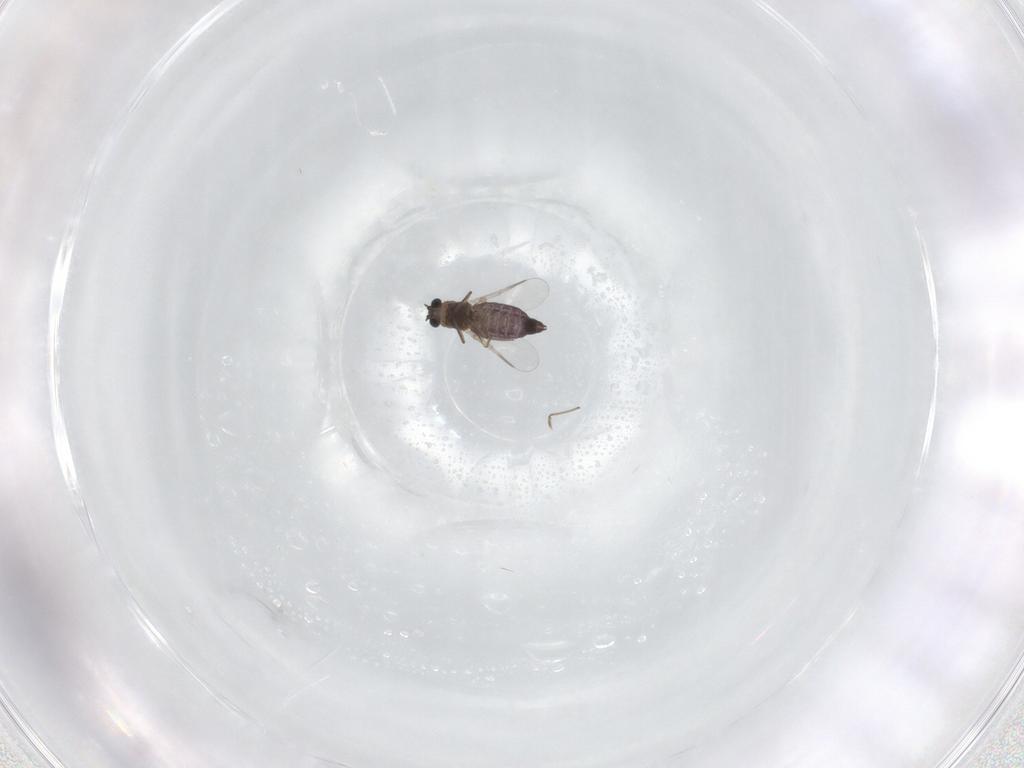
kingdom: Animalia
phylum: Arthropoda
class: Insecta
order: Diptera
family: Chironomidae
